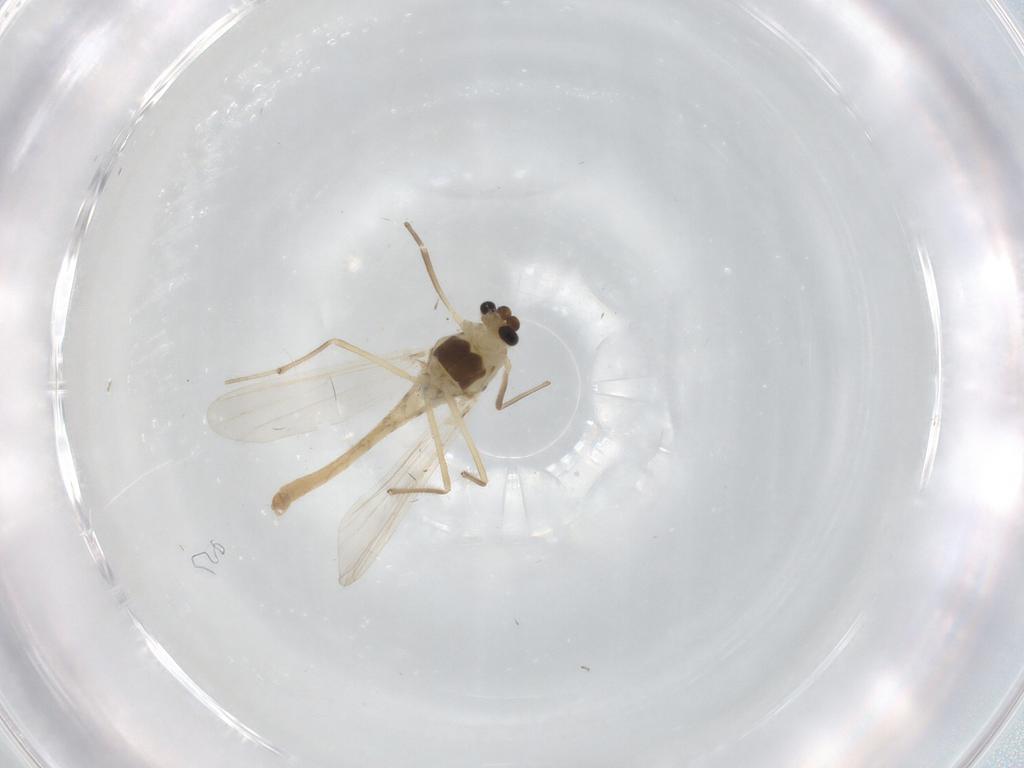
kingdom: Animalia
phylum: Arthropoda
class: Insecta
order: Diptera
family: Chironomidae
